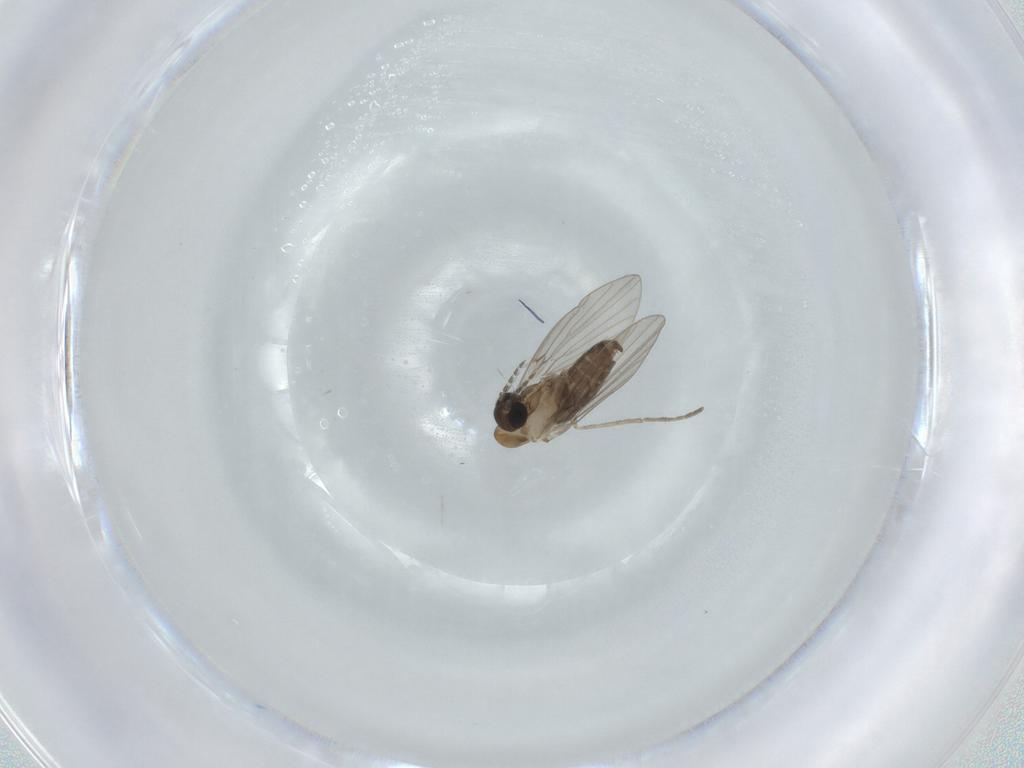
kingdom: Animalia
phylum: Arthropoda
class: Insecta
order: Diptera
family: Psychodidae
